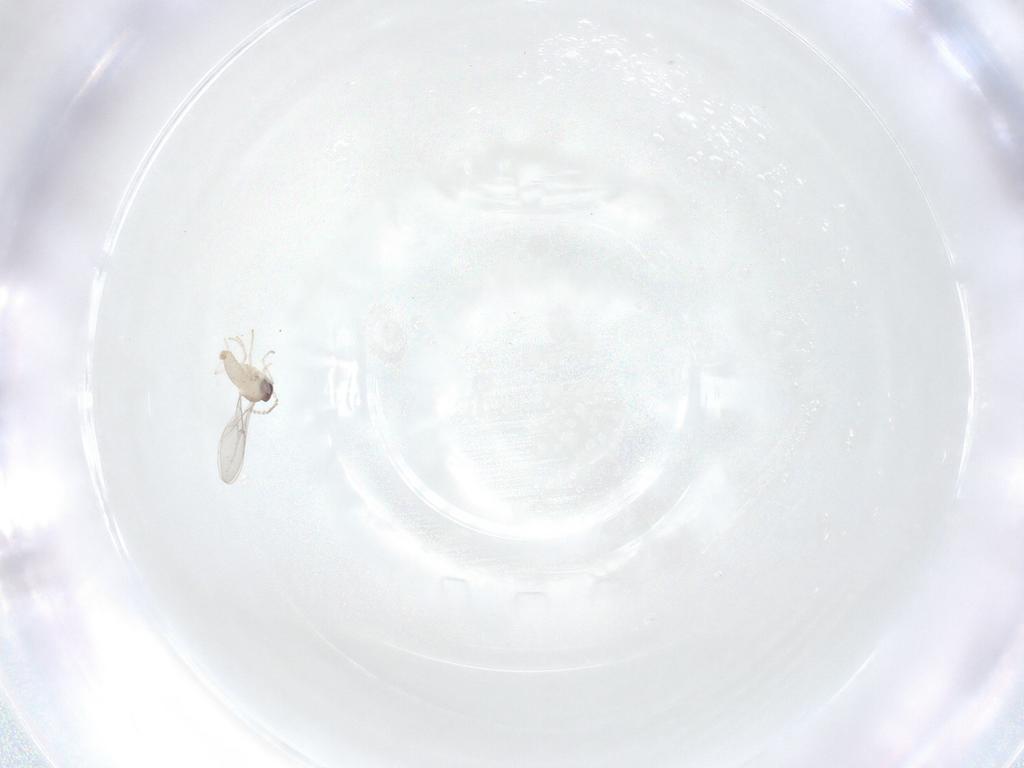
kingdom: Animalia
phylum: Arthropoda
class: Insecta
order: Diptera
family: Cecidomyiidae
